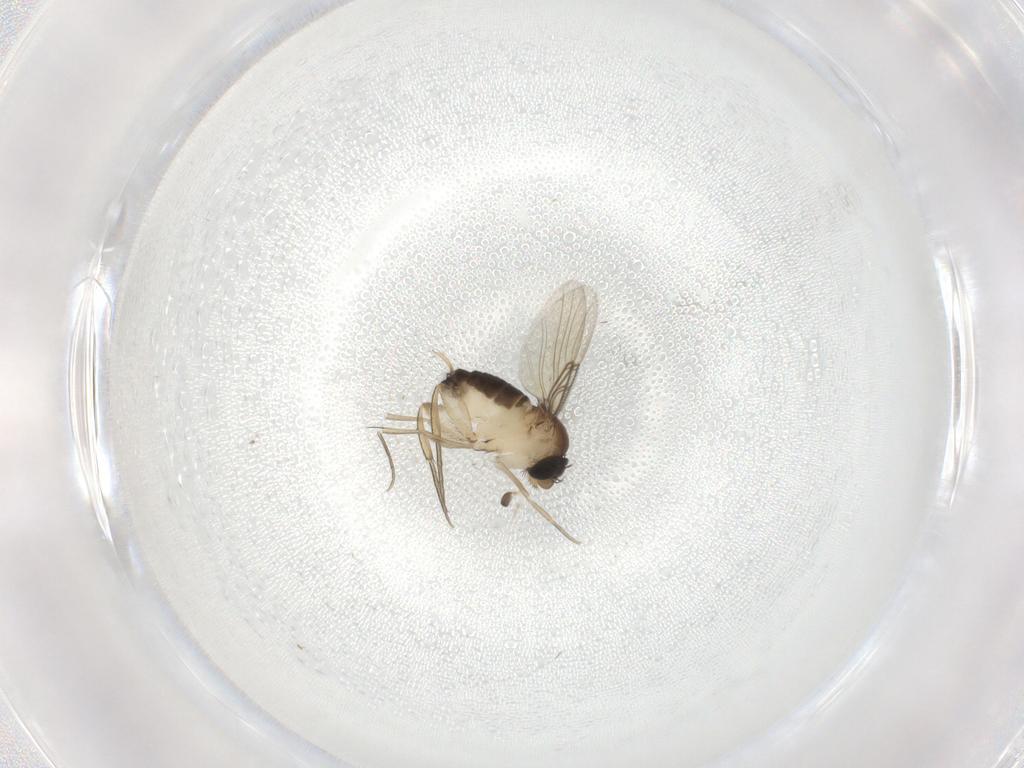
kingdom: Animalia
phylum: Arthropoda
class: Insecta
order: Diptera
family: Phoridae
